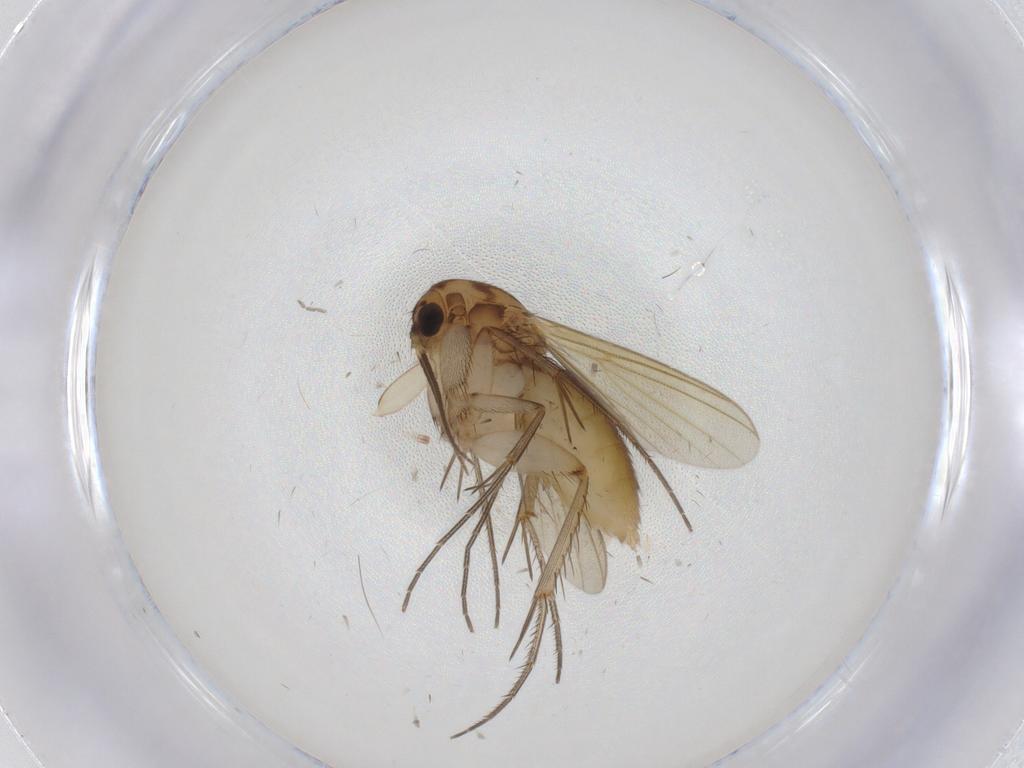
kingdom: Animalia
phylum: Arthropoda
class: Insecta
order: Diptera
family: Mycetophilidae
